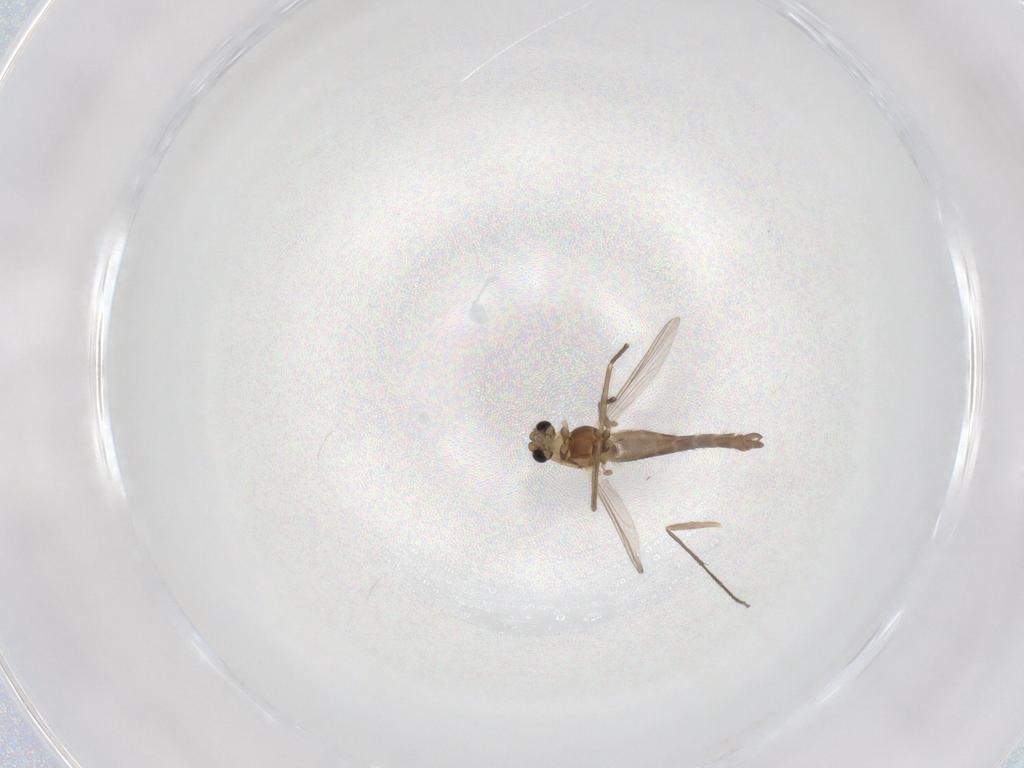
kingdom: Animalia
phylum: Arthropoda
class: Insecta
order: Diptera
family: Chironomidae
